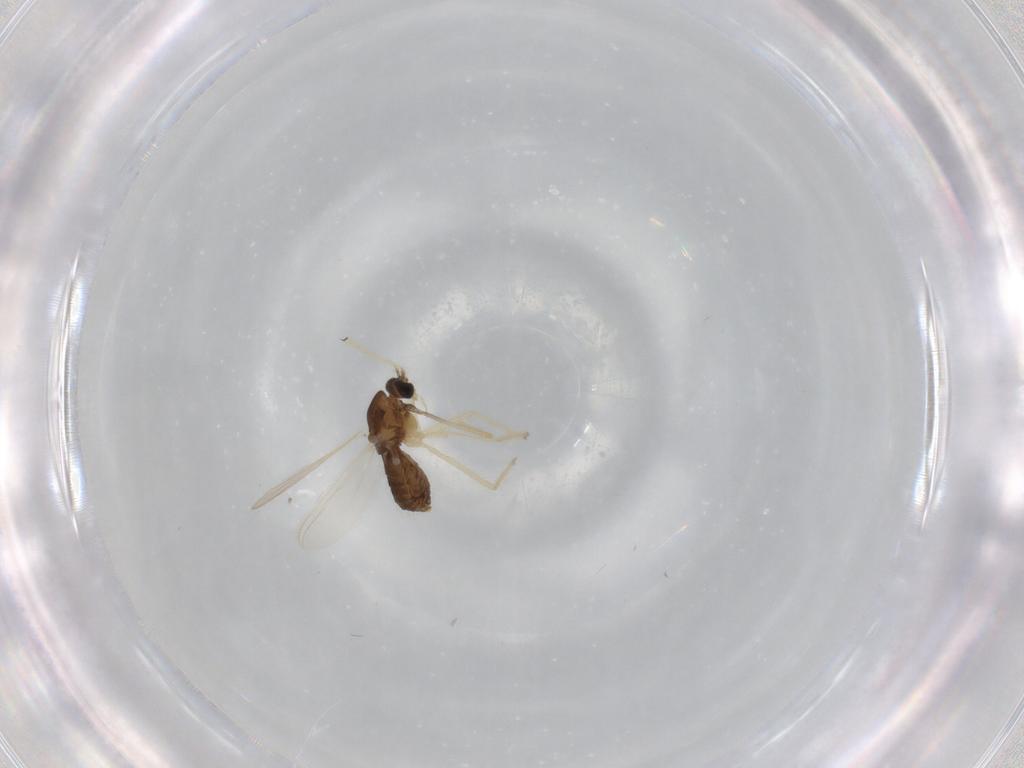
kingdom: Animalia
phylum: Arthropoda
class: Insecta
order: Diptera
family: Chironomidae
